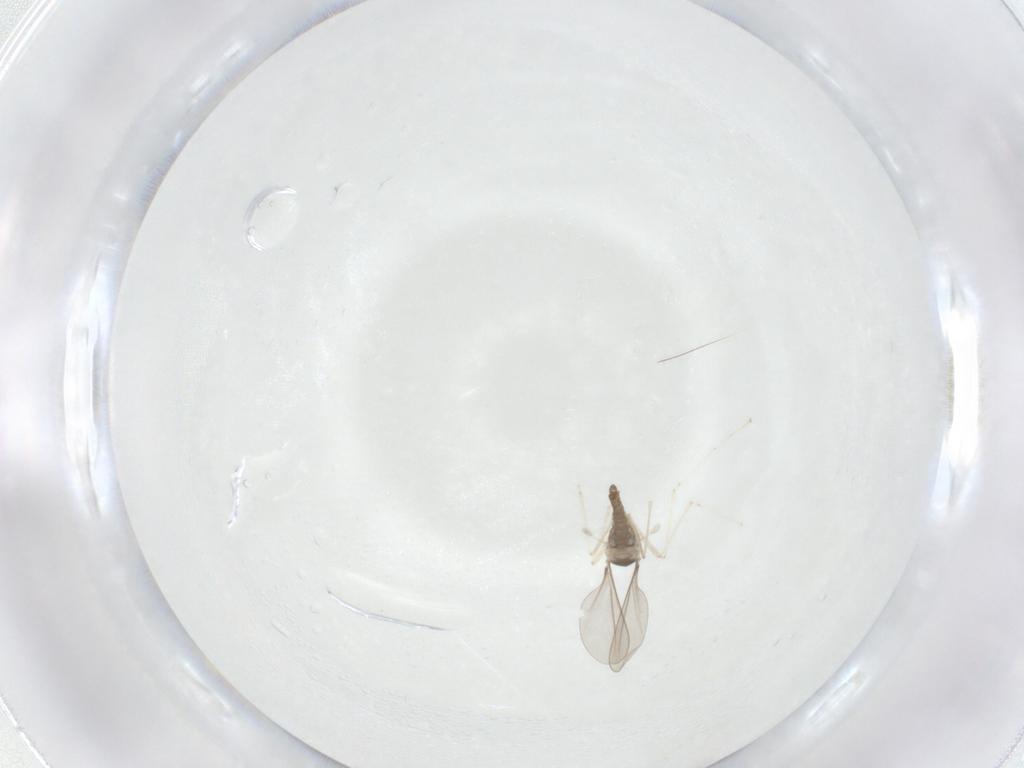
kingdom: Animalia
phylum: Arthropoda
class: Insecta
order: Diptera
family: Cecidomyiidae
